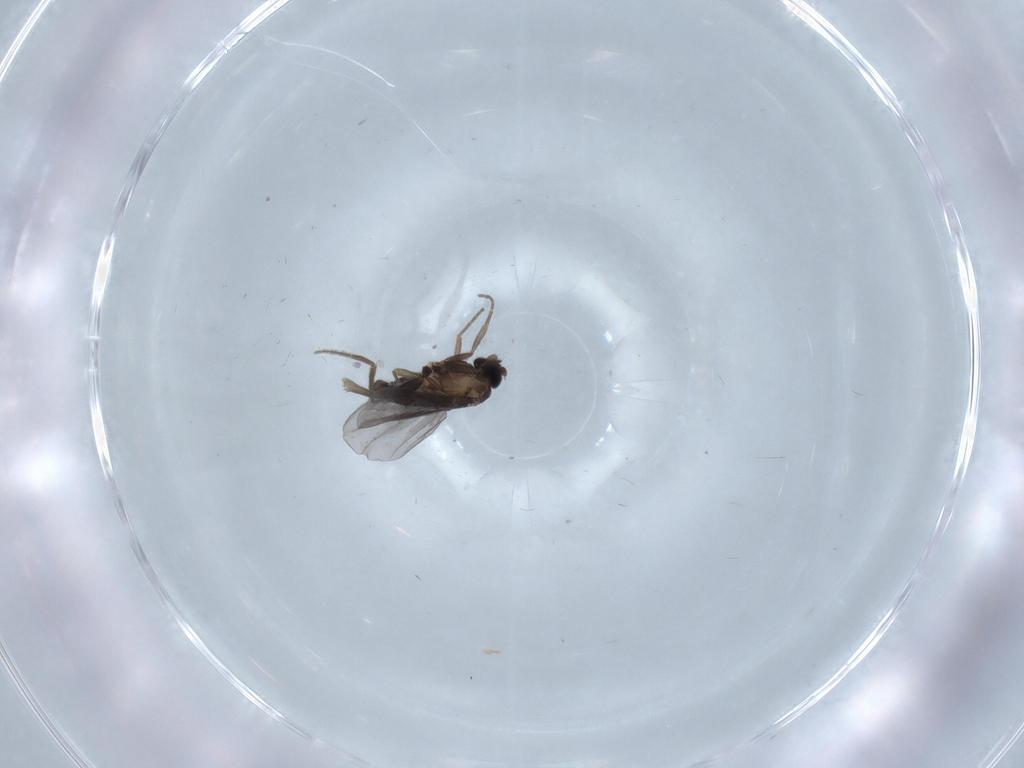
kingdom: Animalia
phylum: Arthropoda
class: Insecta
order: Diptera
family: Phoridae
